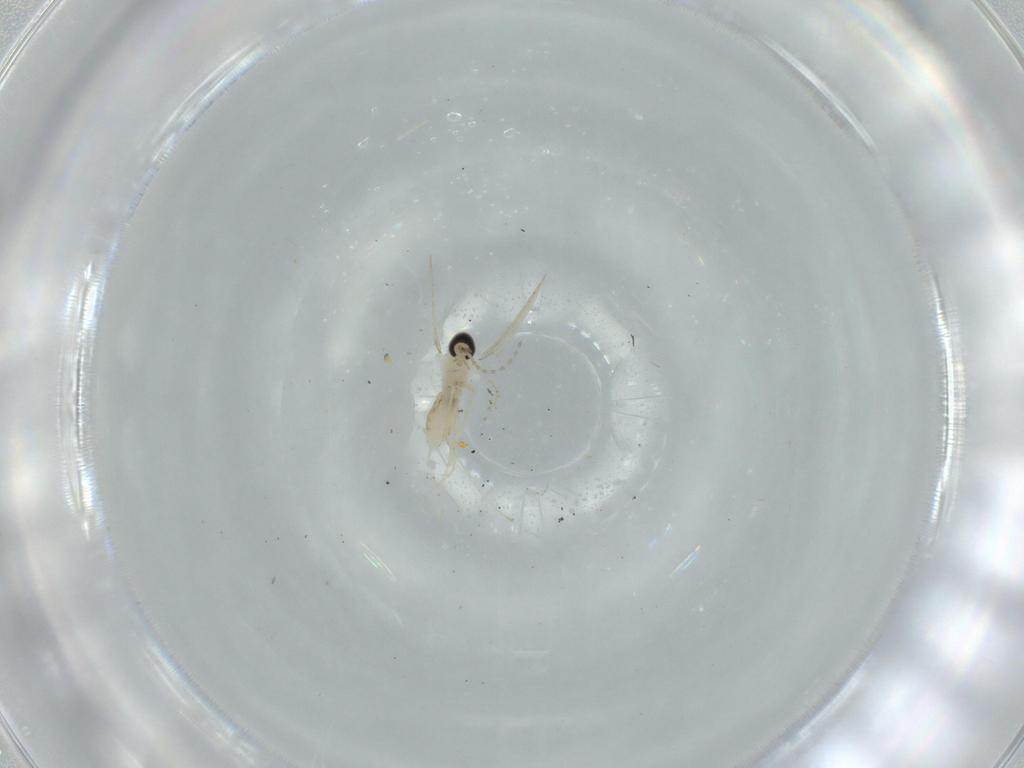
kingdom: Animalia
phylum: Arthropoda
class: Insecta
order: Diptera
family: Cecidomyiidae
